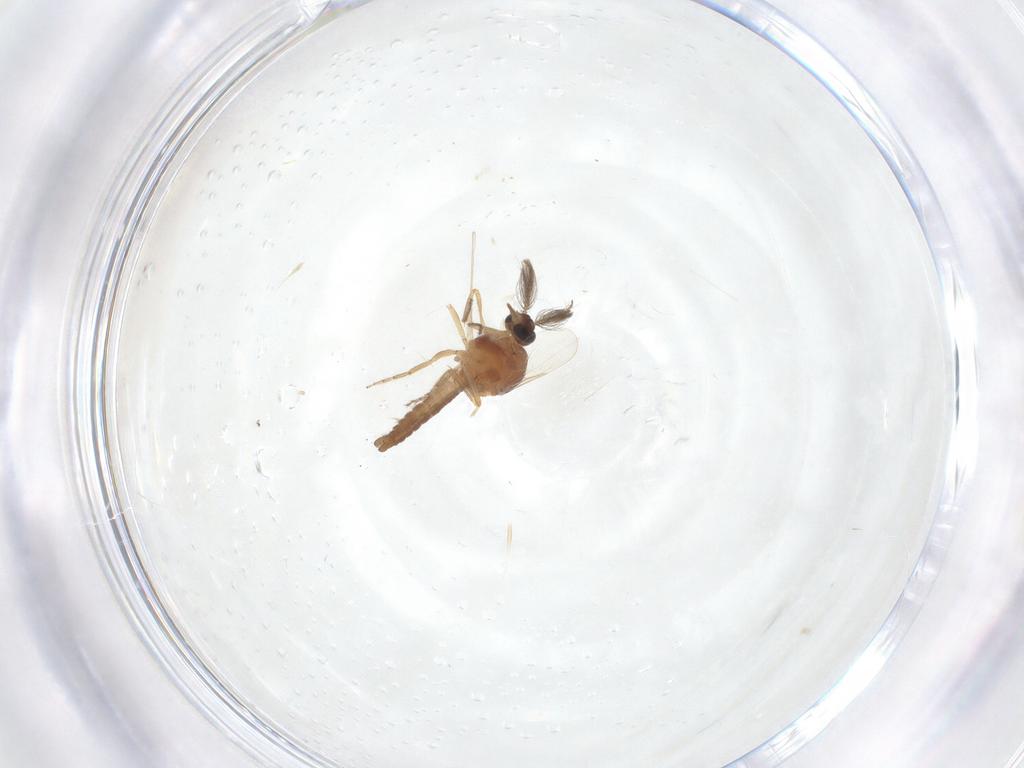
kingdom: Animalia
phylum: Arthropoda
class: Insecta
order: Diptera
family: Ceratopogonidae
